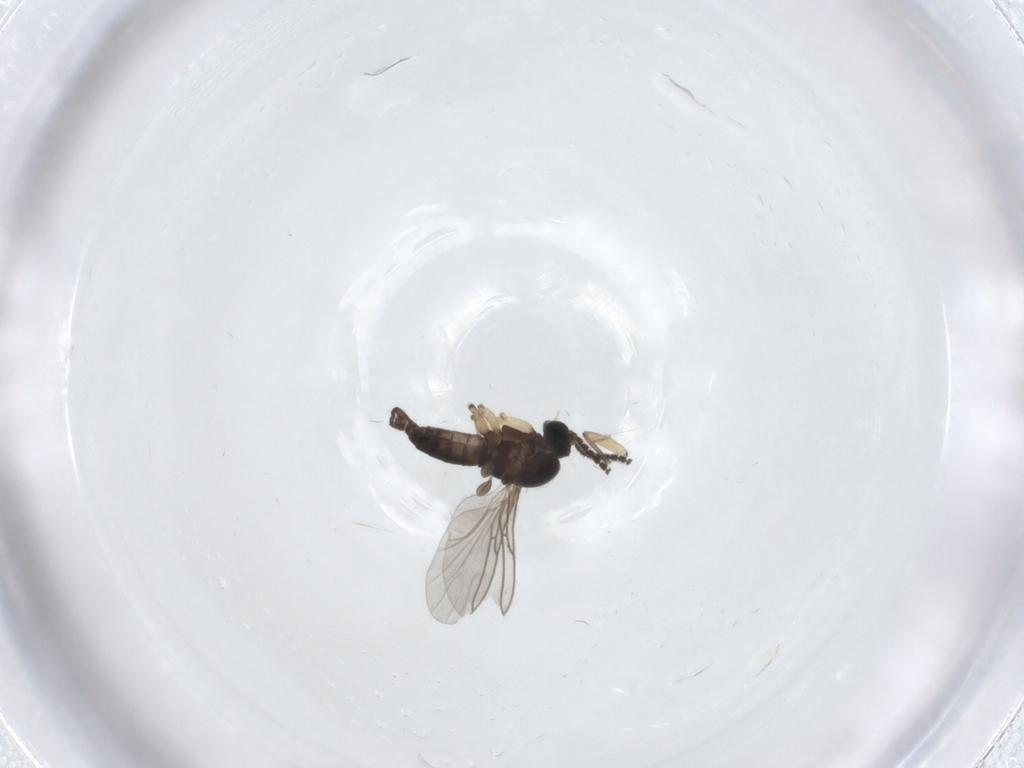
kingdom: Animalia
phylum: Arthropoda
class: Insecta
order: Diptera
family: Sciaridae
